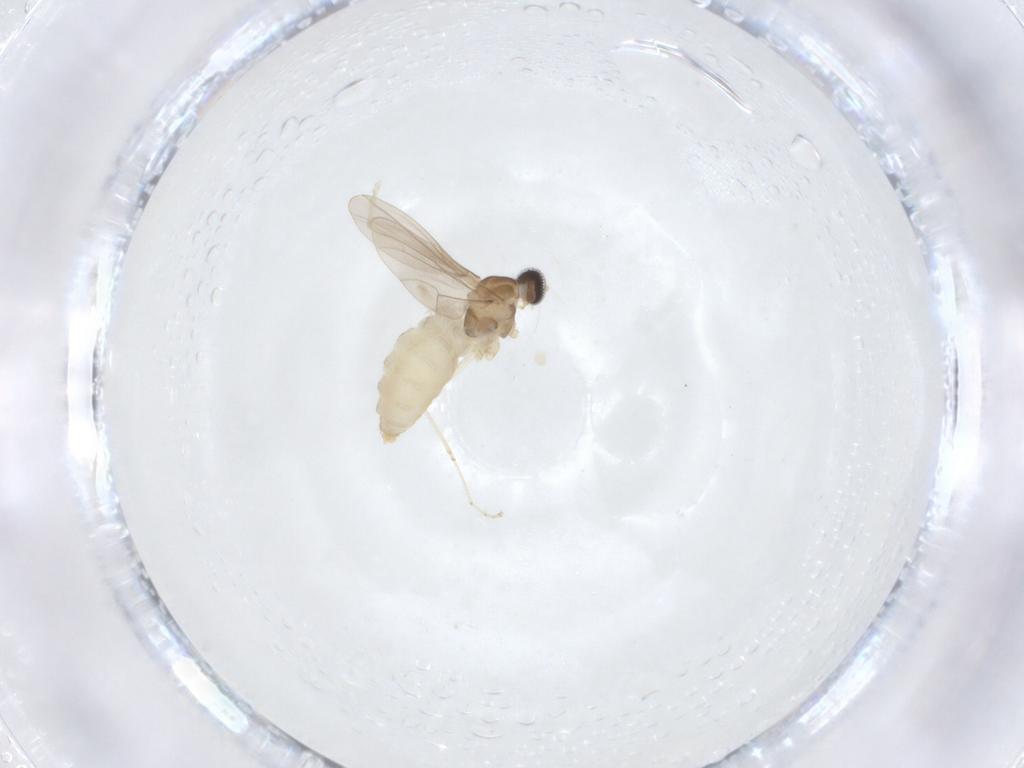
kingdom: Animalia
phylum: Arthropoda
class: Insecta
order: Diptera
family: Cecidomyiidae
